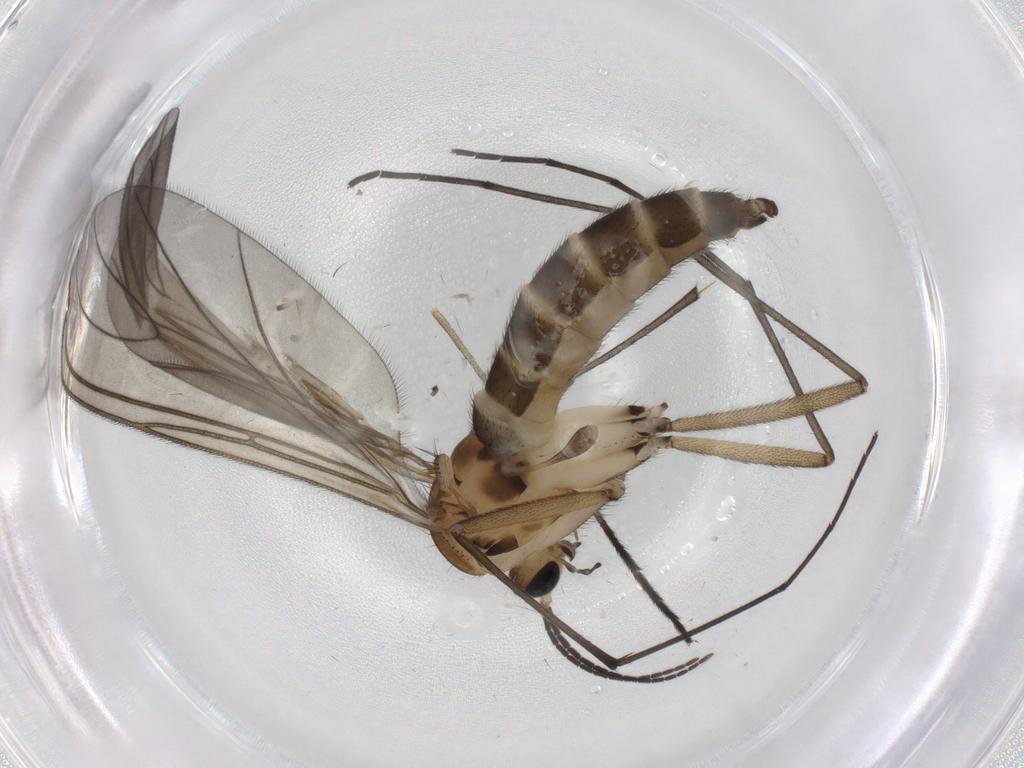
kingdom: Animalia
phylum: Arthropoda
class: Insecta
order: Diptera
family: Sciaridae
